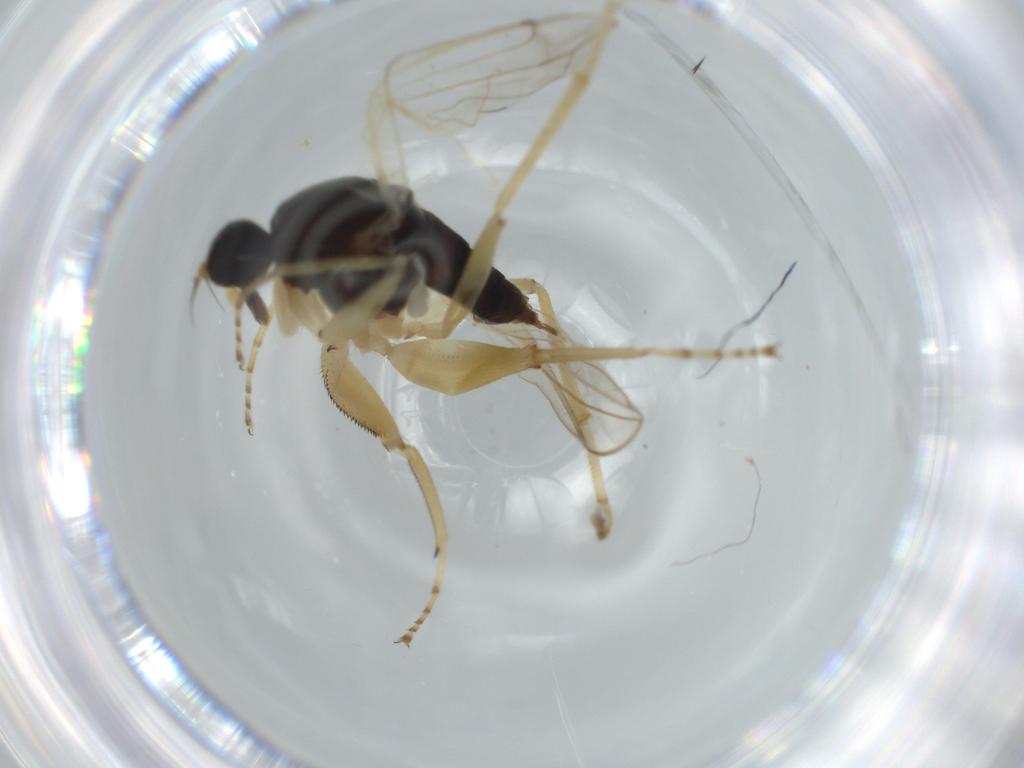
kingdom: Animalia
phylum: Arthropoda
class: Insecta
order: Diptera
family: Hybotidae
